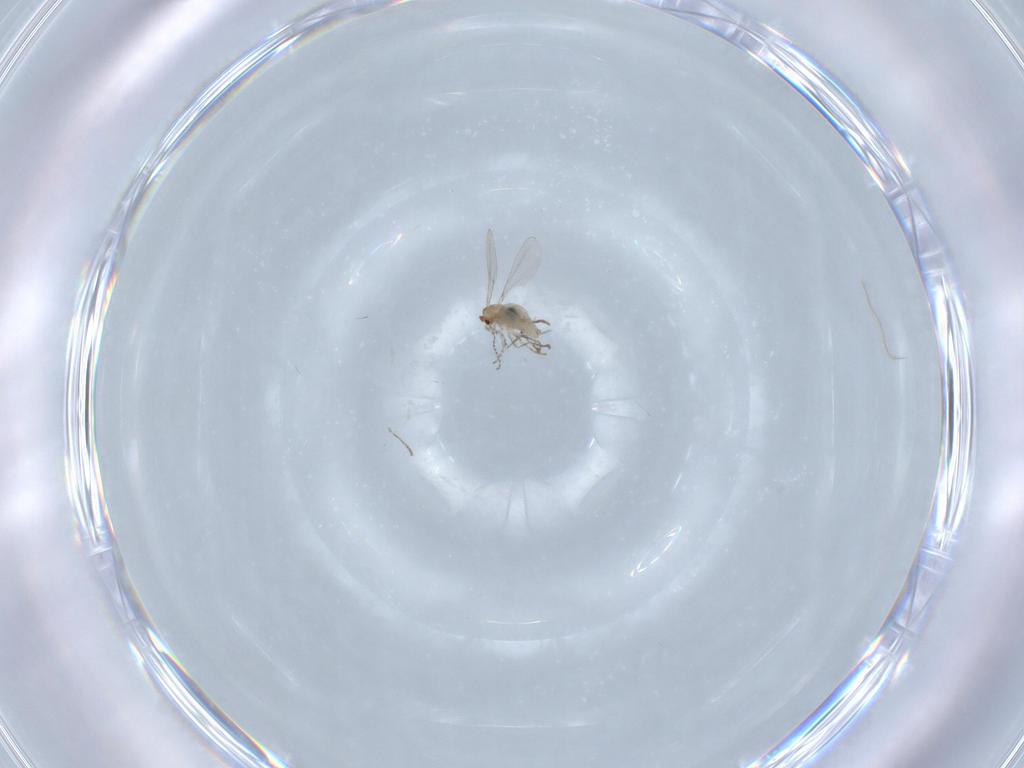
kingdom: Animalia
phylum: Arthropoda
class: Insecta
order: Diptera
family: Cecidomyiidae
